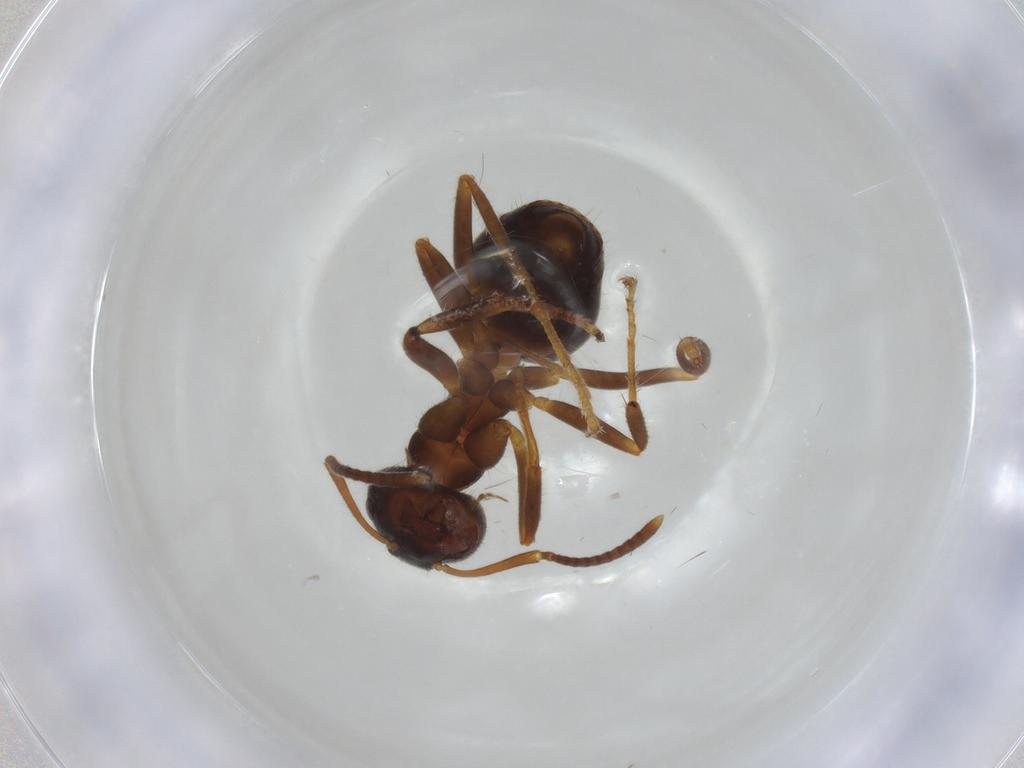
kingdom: Animalia
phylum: Arthropoda
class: Insecta
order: Hymenoptera
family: Formicidae
